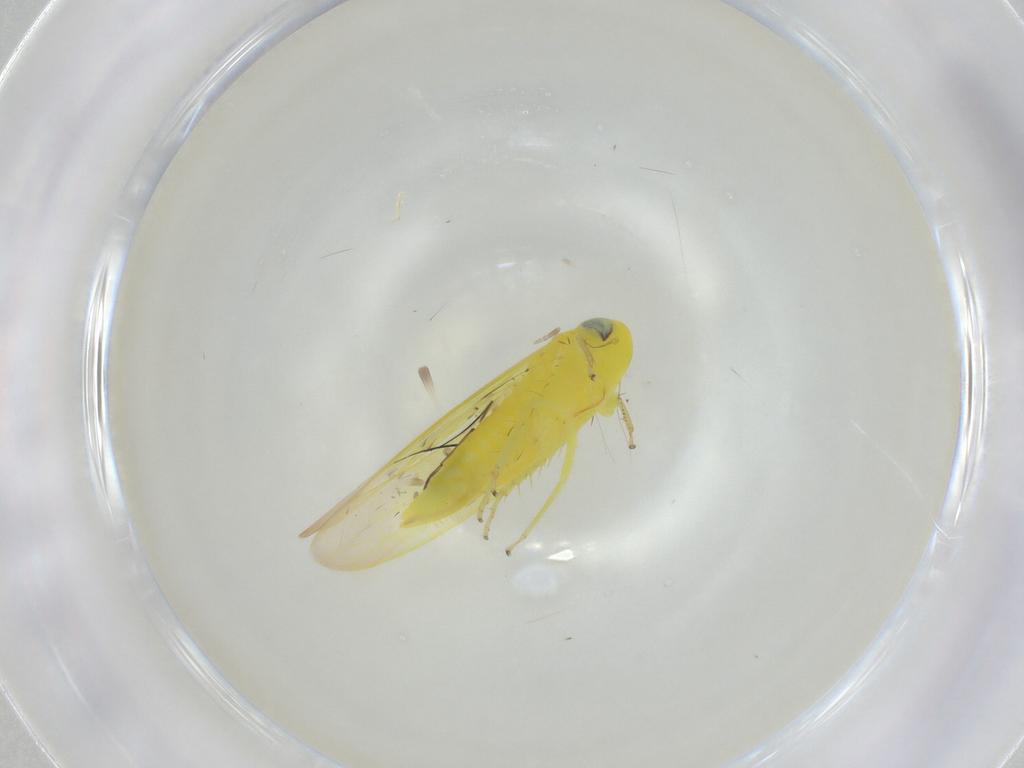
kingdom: Animalia
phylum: Arthropoda
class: Insecta
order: Hemiptera
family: Cicadellidae
